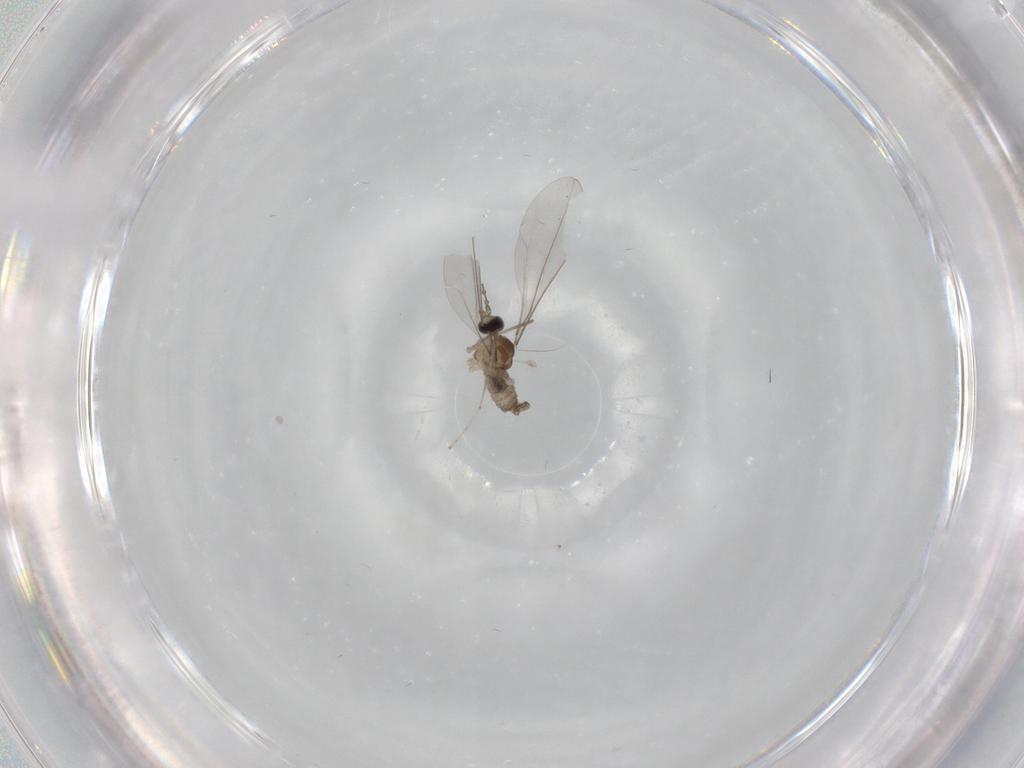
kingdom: Animalia
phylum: Arthropoda
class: Insecta
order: Diptera
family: Cecidomyiidae
